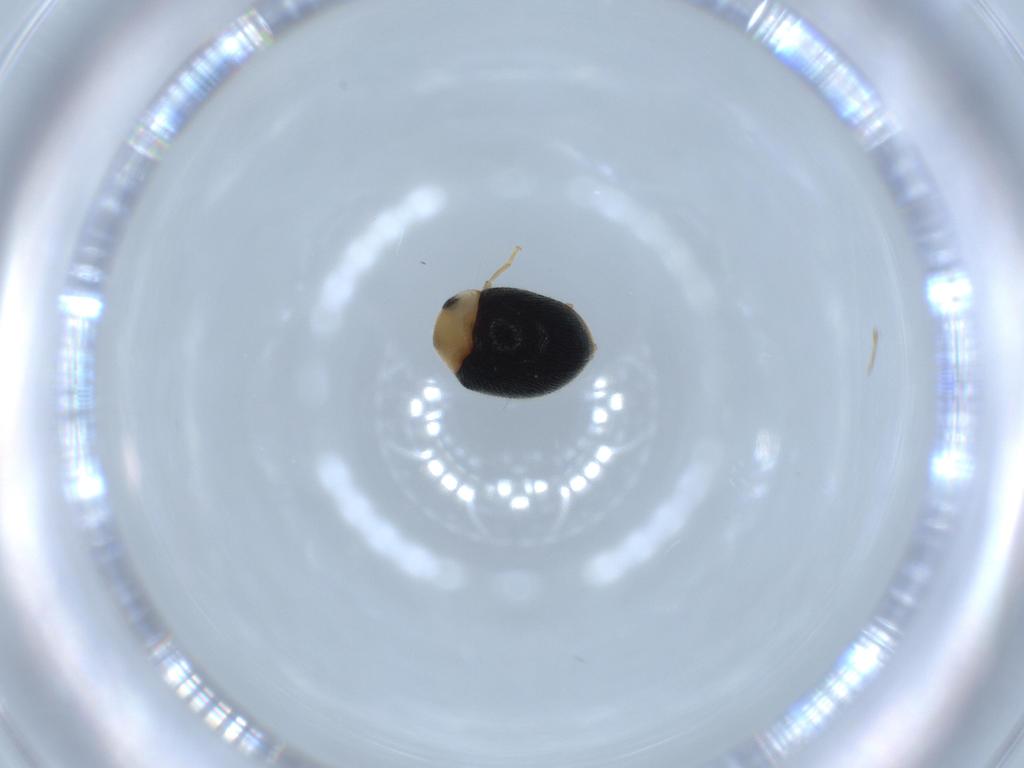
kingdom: Animalia
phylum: Arthropoda
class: Insecta
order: Coleoptera
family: Coccinellidae
